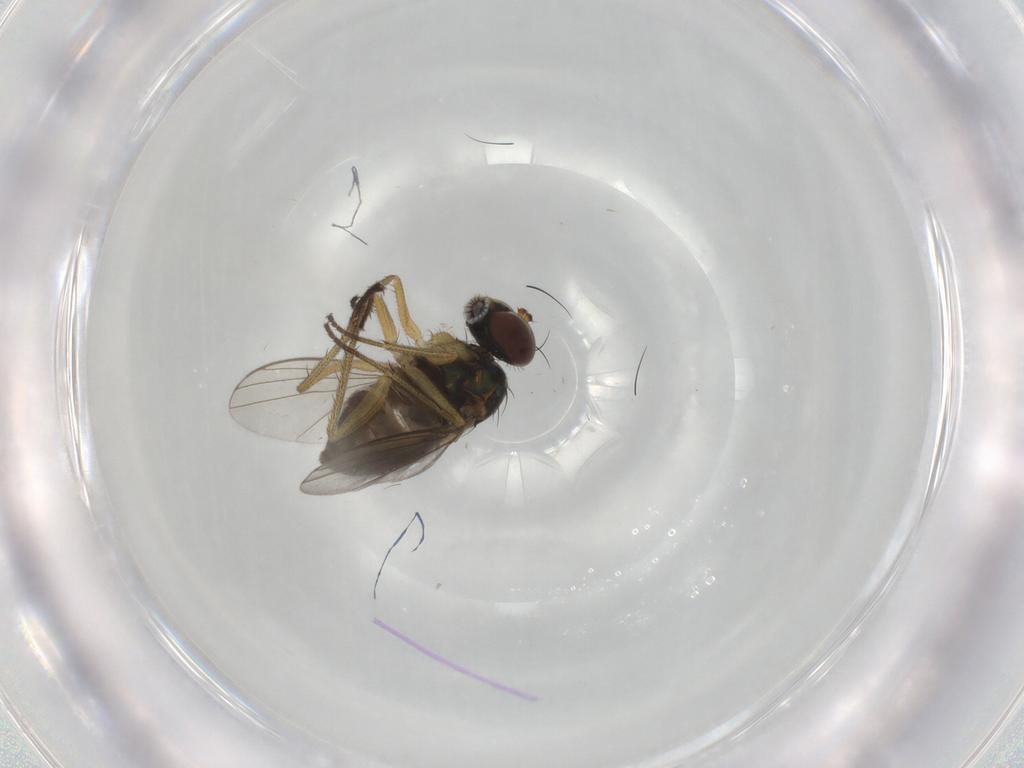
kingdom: Animalia
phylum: Arthropoda
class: Insecta
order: Diptera
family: Dolichopodidae
